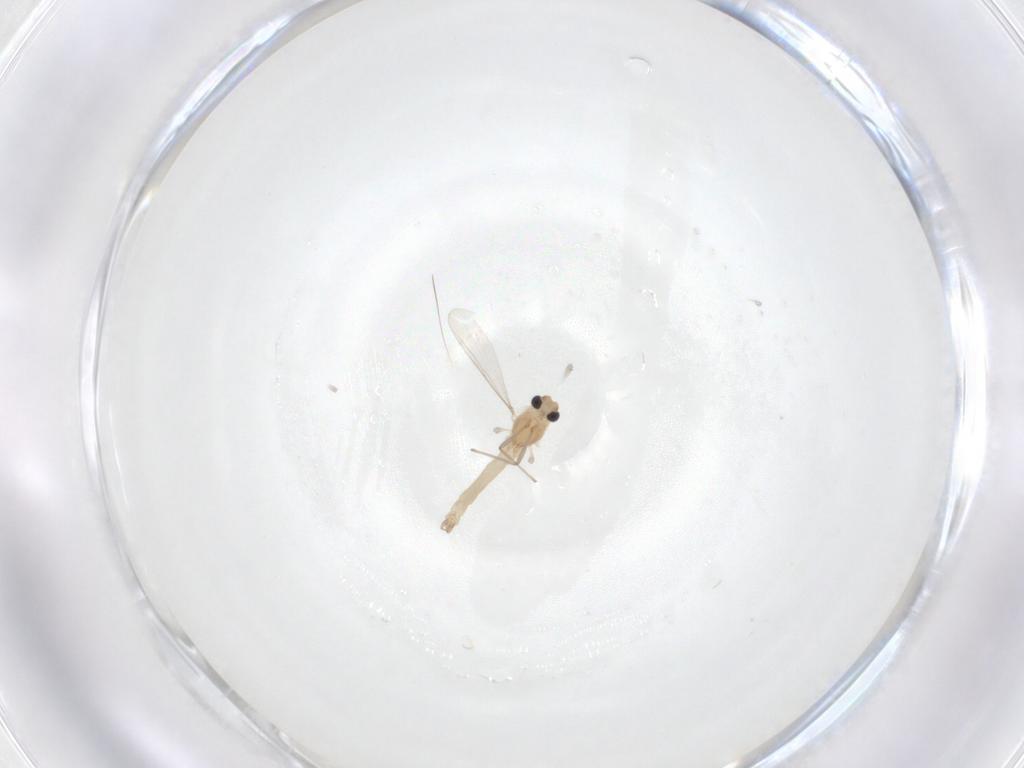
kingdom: Animalia
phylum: Arthropoda
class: Insecta
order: Diptera
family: Chironomidae
